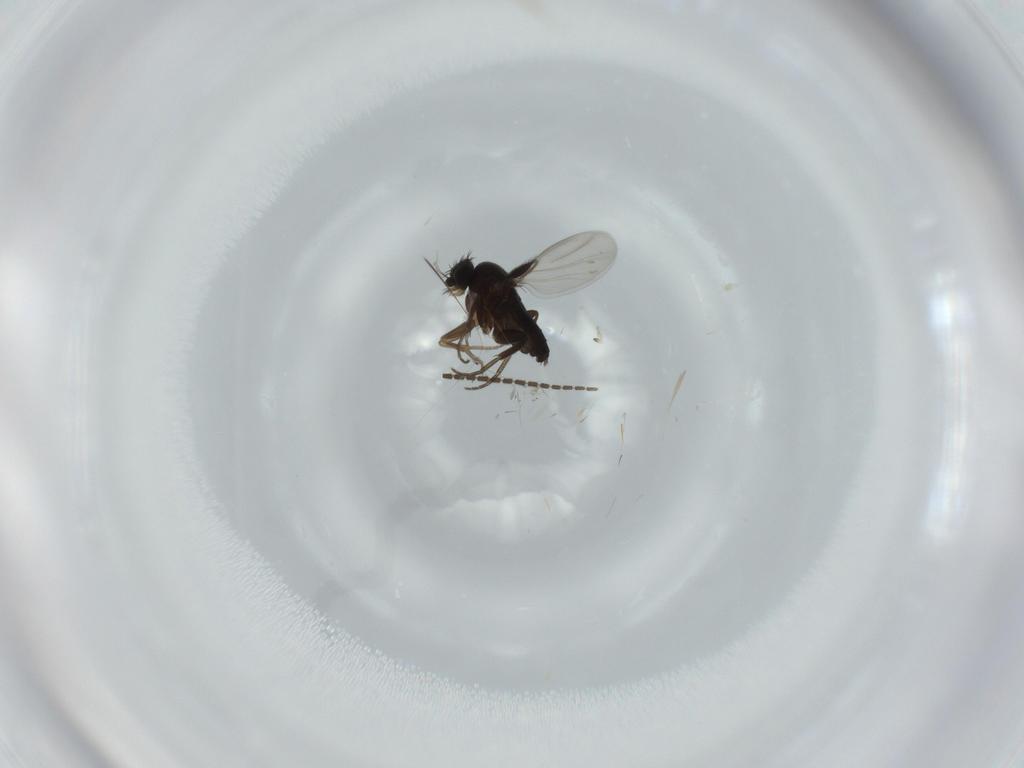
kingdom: Animalia
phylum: Arthropoda
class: Insecta
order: Diptera
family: Sciaridae
